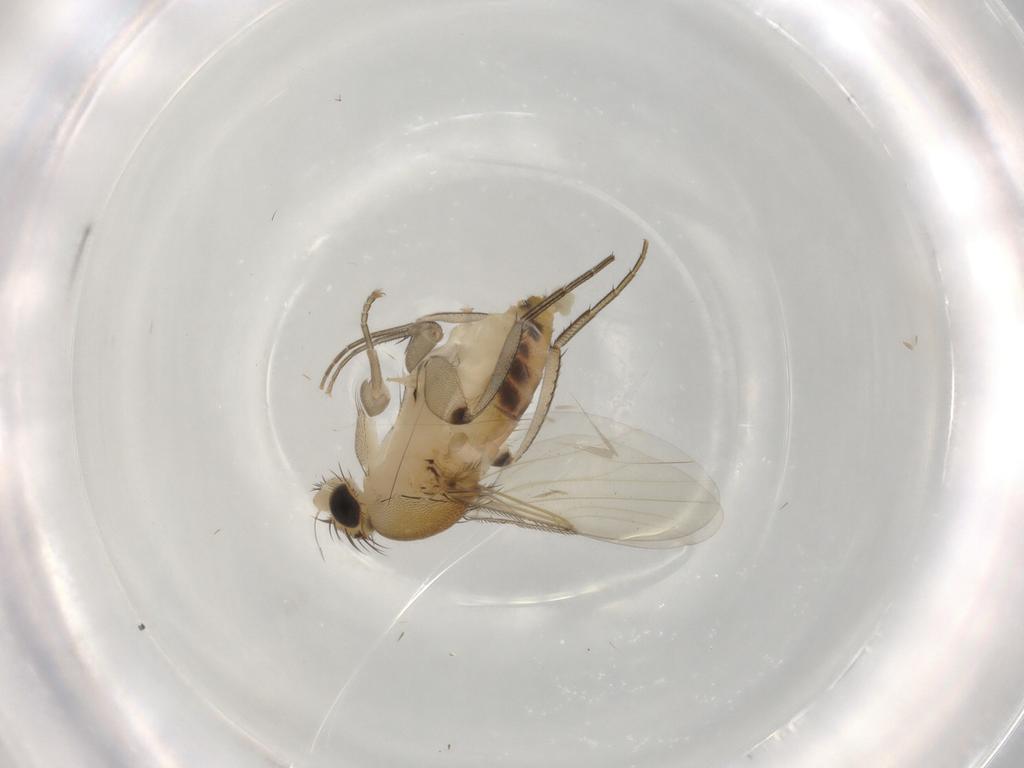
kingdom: Animalia
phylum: Arthropoda
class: Insecta
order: Diptera
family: Phoridae
